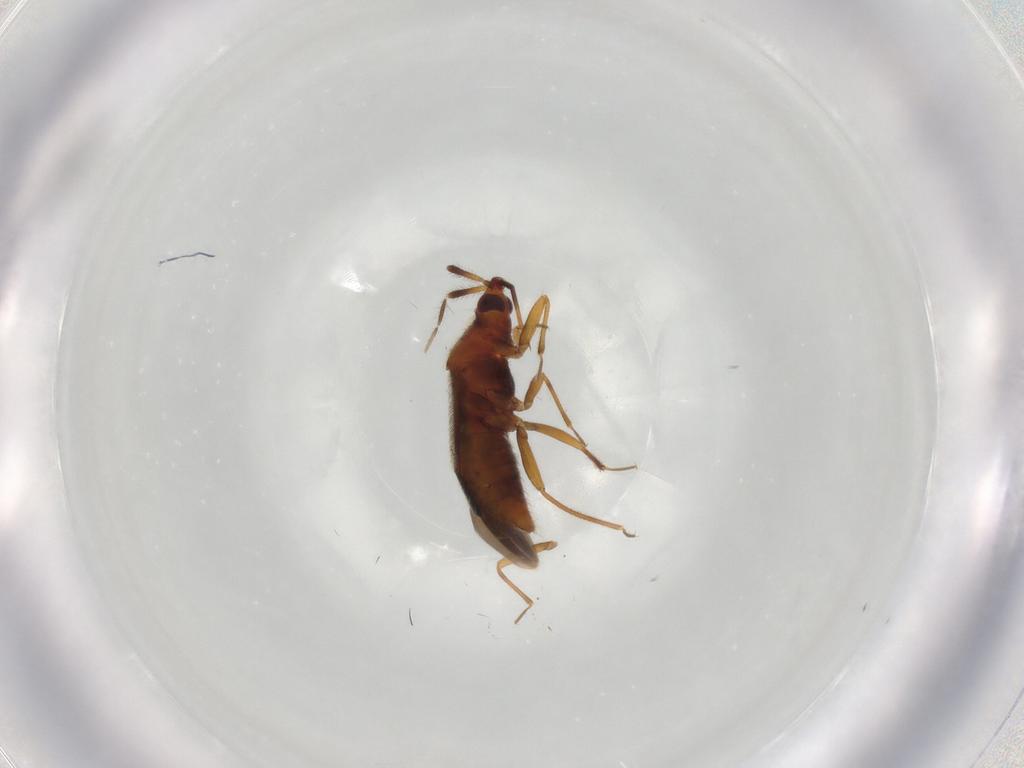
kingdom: Animalia
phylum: Arthropoda
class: Insecta
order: Hemiptera
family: Anthocoridae
